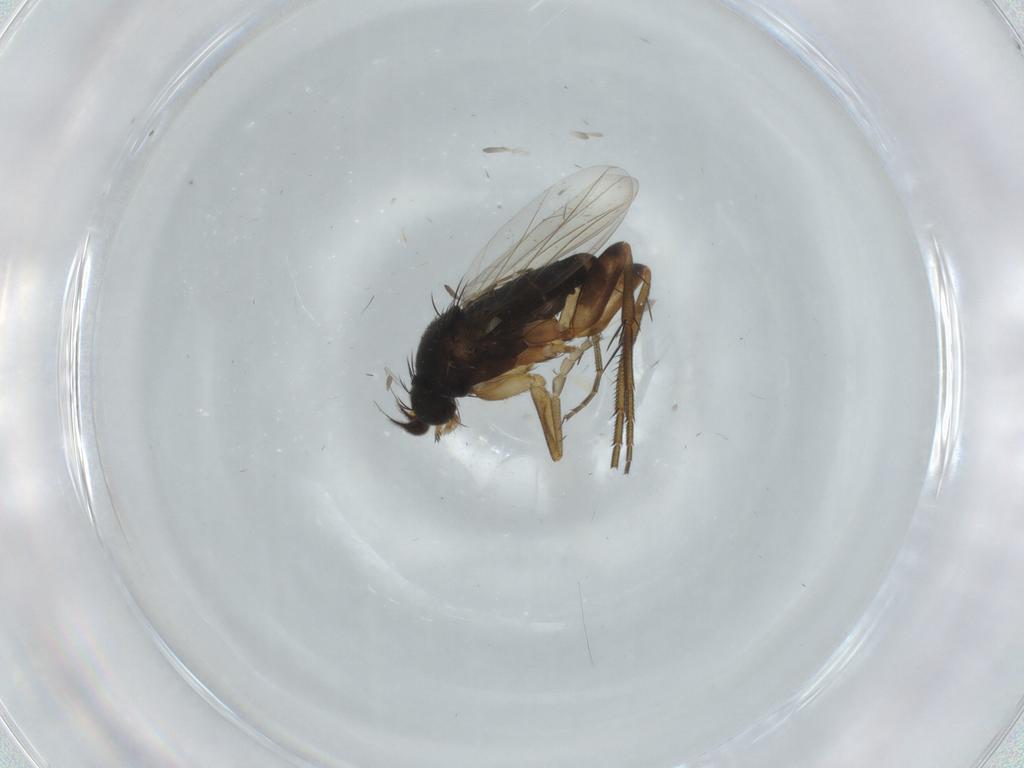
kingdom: Animalia
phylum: Arthropoda
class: Insecta
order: Diptera
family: Phoridae
